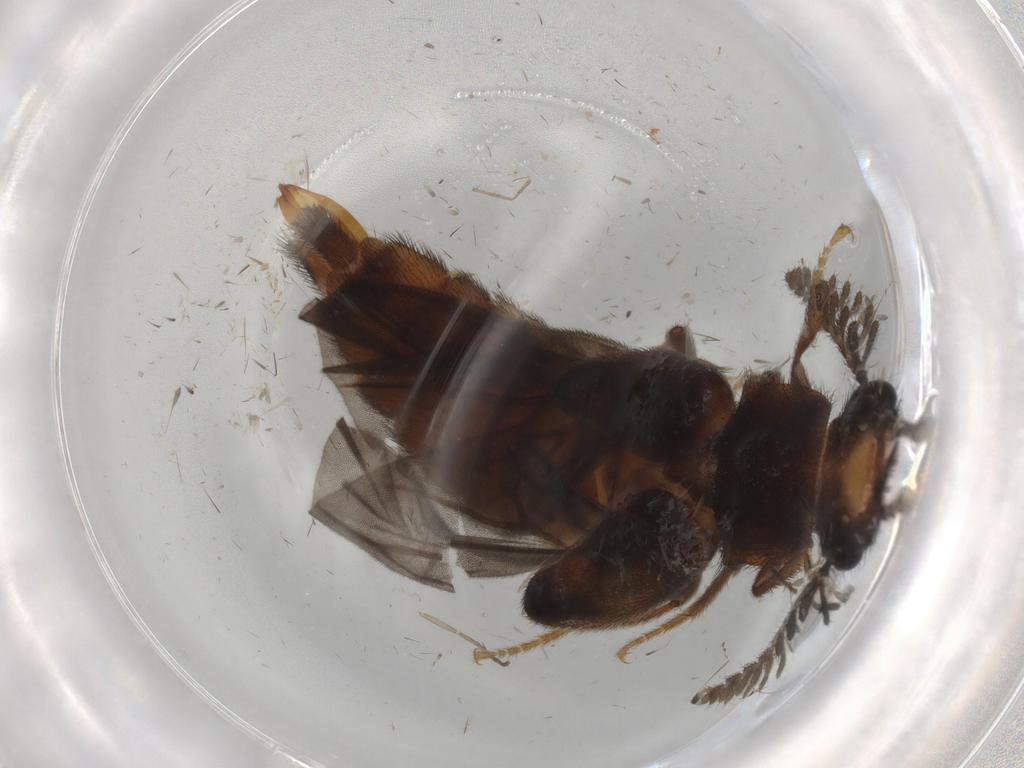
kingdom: Animalia
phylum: Arthropoda
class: Insecta
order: Coleoptera
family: Phengodidae
